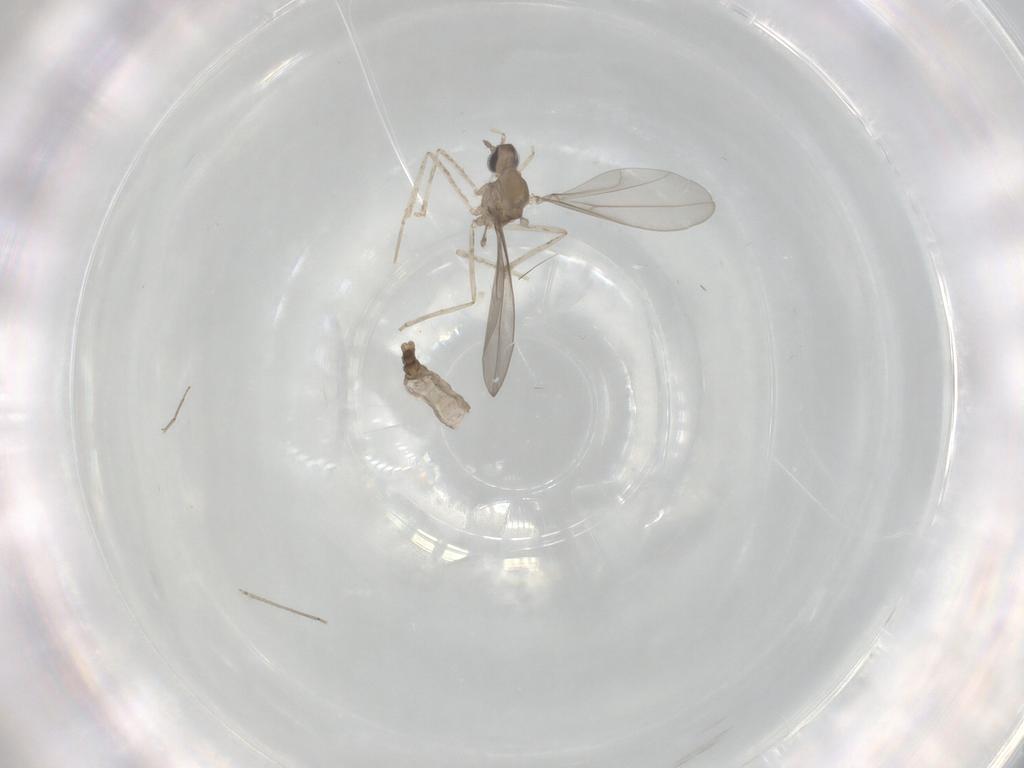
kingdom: Animalia
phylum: Arthropoda
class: Insecta
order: Diptera
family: Cecidomyiidae
